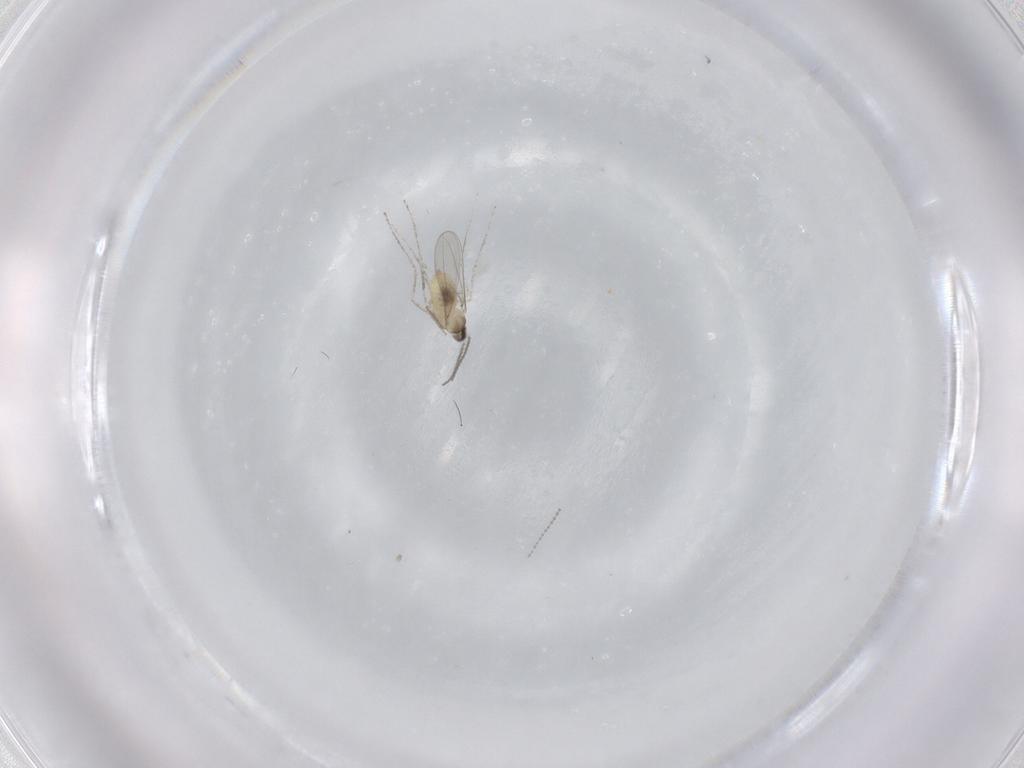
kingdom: Animalia
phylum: Arthropoda
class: Insecta
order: Diptera
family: Cecidomyiidae
